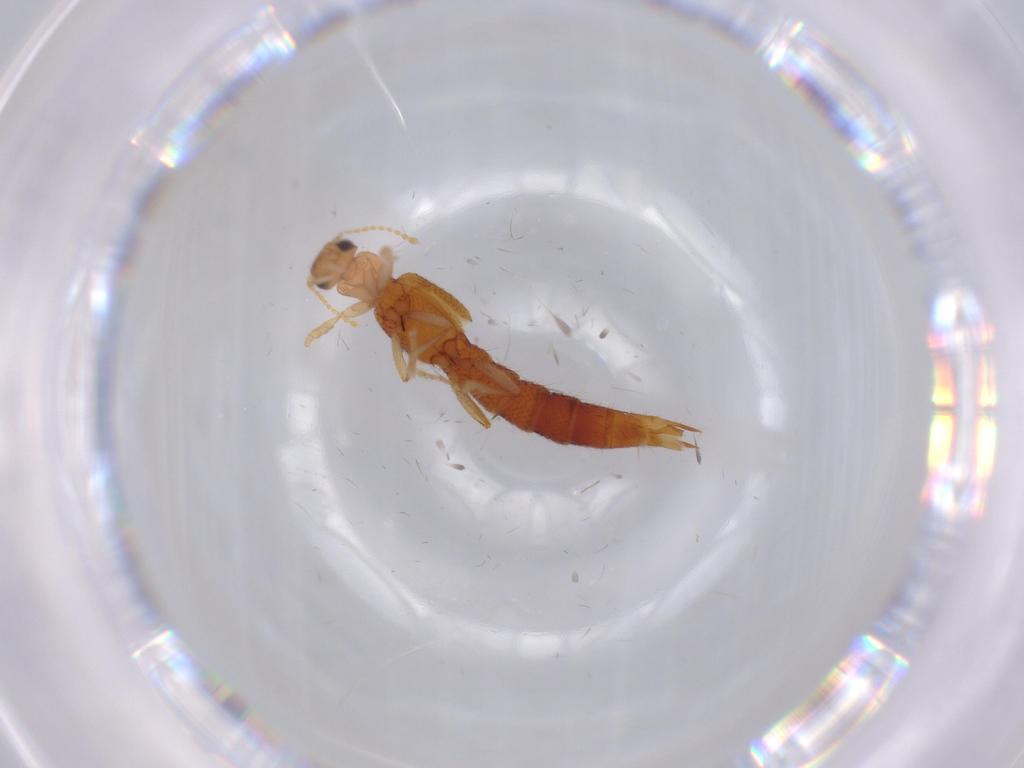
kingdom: Animalia
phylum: Arthropoda
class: Insecta
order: Coleoptera
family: Staphylinidae
